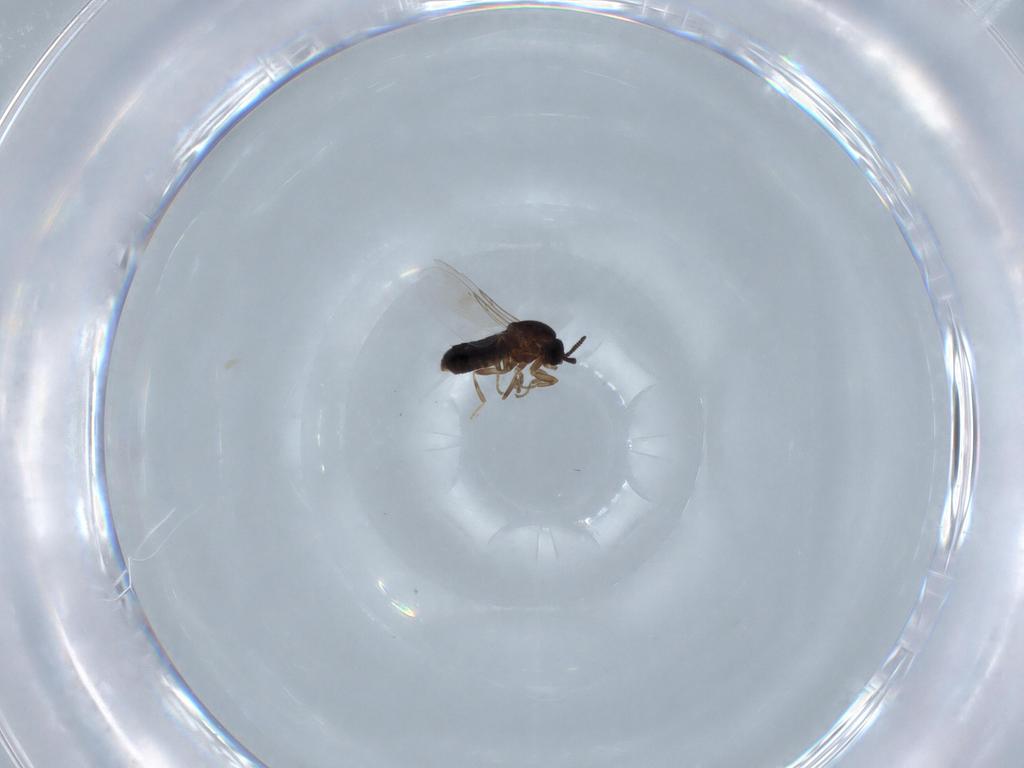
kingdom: Animalia
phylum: Arthropoda
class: Insecta
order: Diptera
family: Scatopsidae
